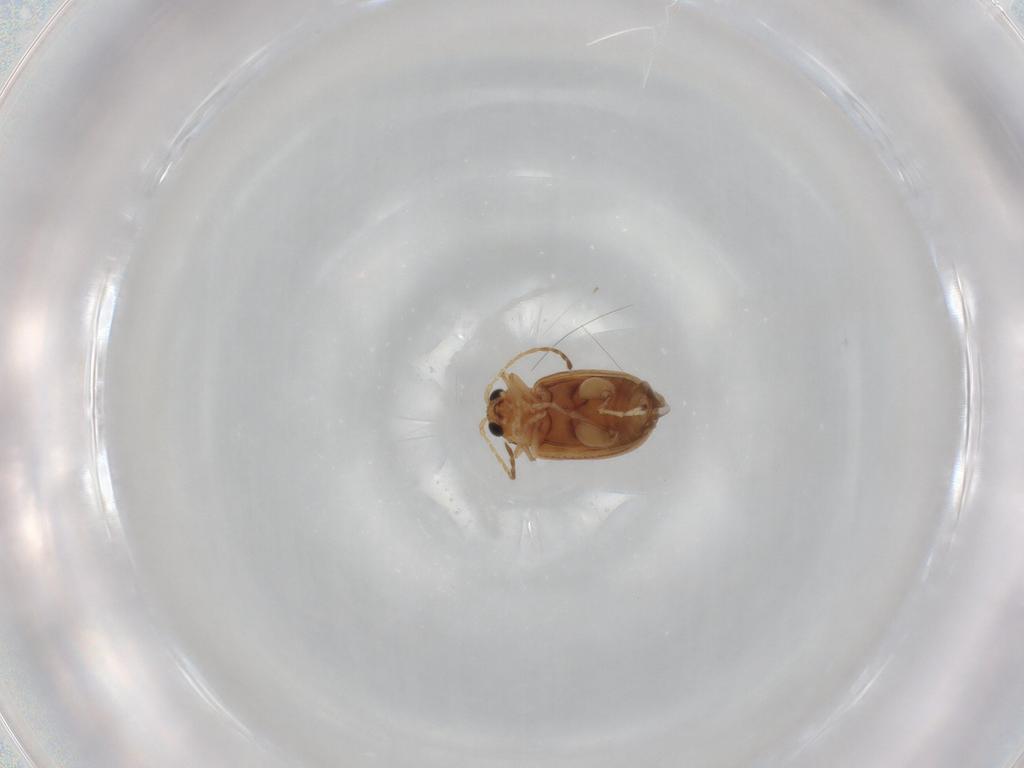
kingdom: Animalia
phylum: Arthropoda
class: Insecta
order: Coleoptera
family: Chrysomelidae
